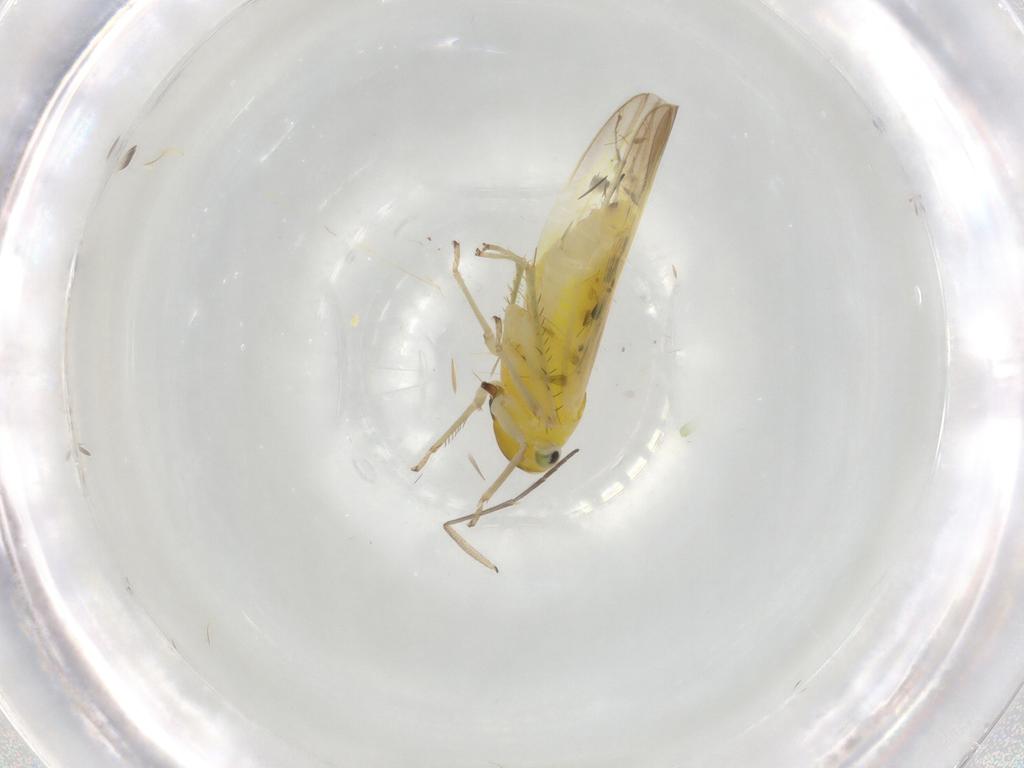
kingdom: Animalia
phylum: Arthropoda
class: Insecta
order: Hemiptera
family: Cicadellidae
